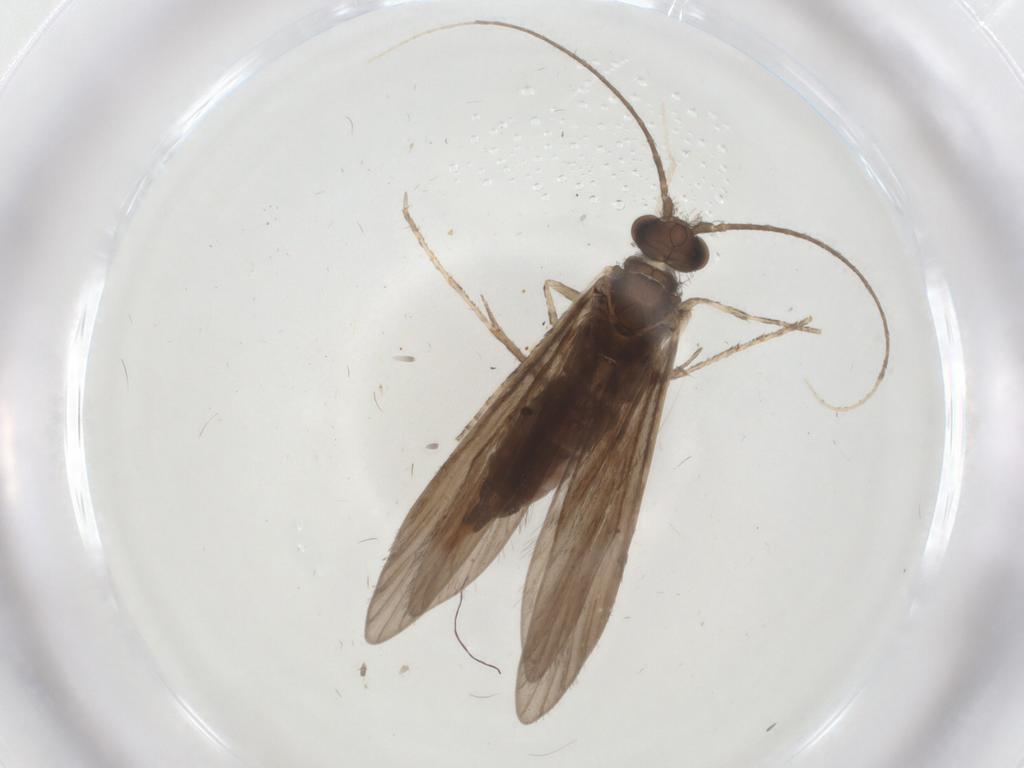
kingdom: Animalia
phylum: Arthropoda
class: Insecta
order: Trichoptera
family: Xiphocentronidae
